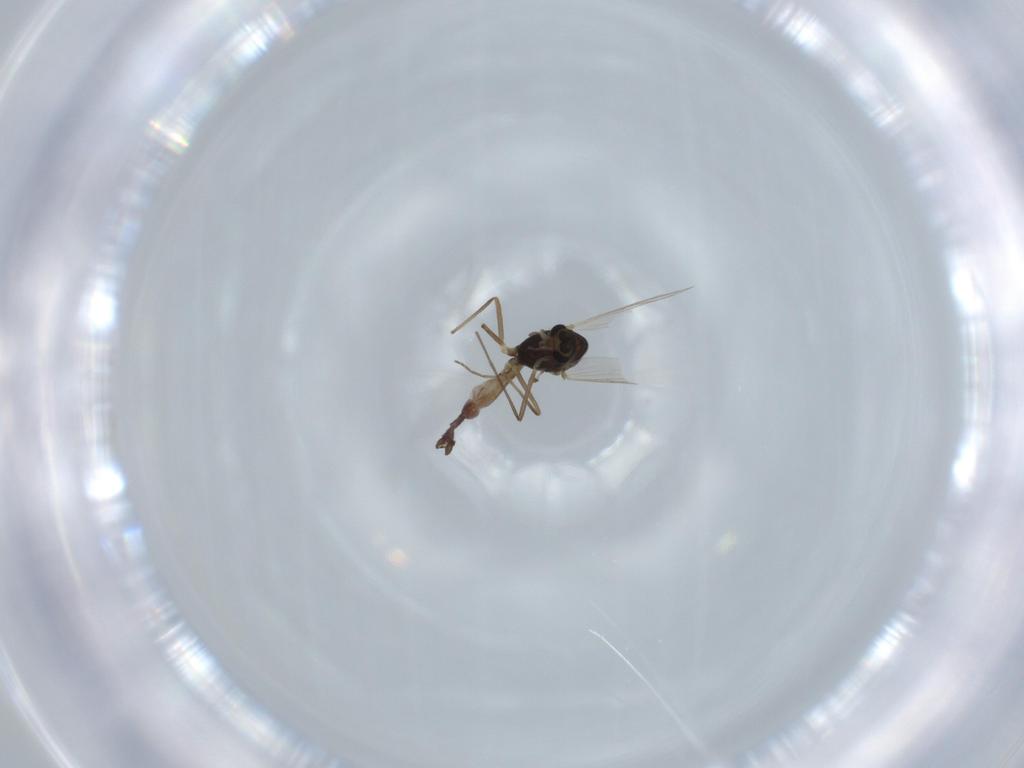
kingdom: Animalia
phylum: Arthropoda
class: Insecta
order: Diptera
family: Chironomidae
